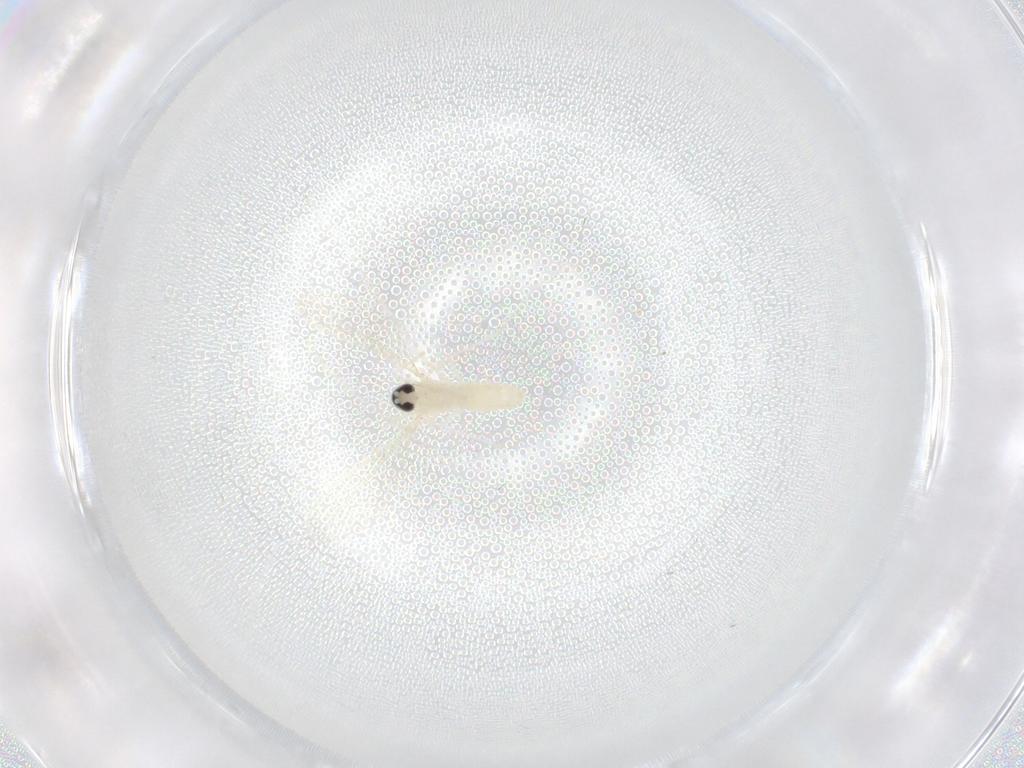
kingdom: Animalia
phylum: Arthropoda
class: Insecta
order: Diptera
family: Cecidomyiidae
